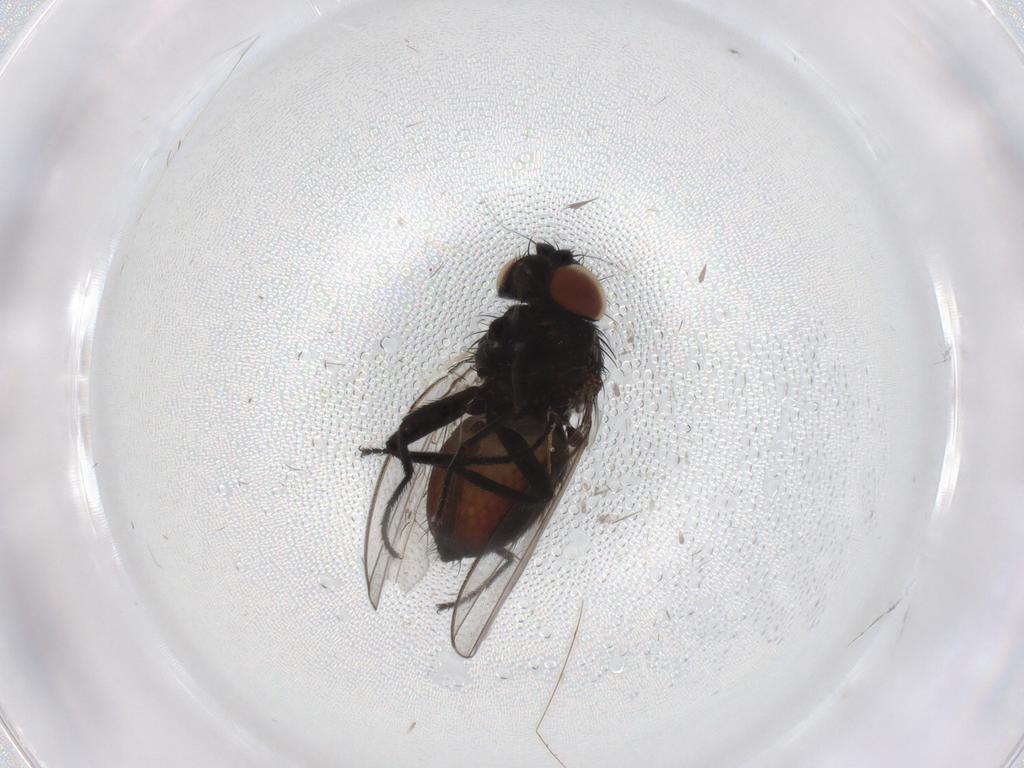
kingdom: Animalia
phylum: Arthropoda
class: Insecta
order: Diptera
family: Milichiidae
